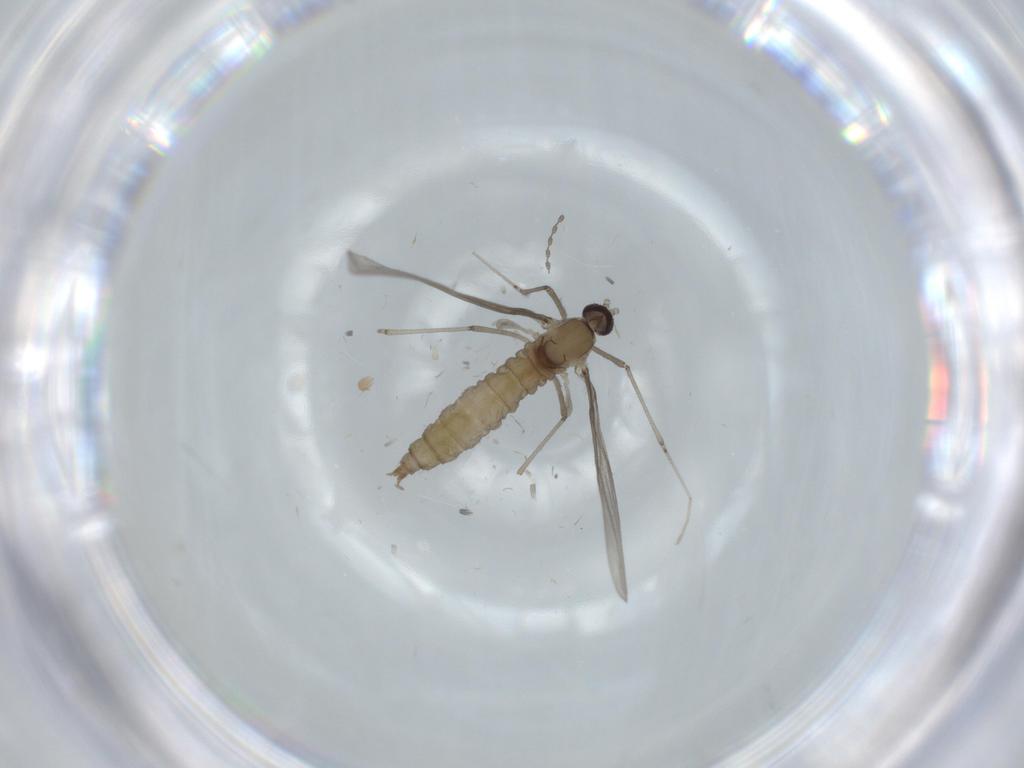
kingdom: Animalia
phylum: Arthropoda
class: Insecta
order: Diptera
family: Cecidomyiidae
